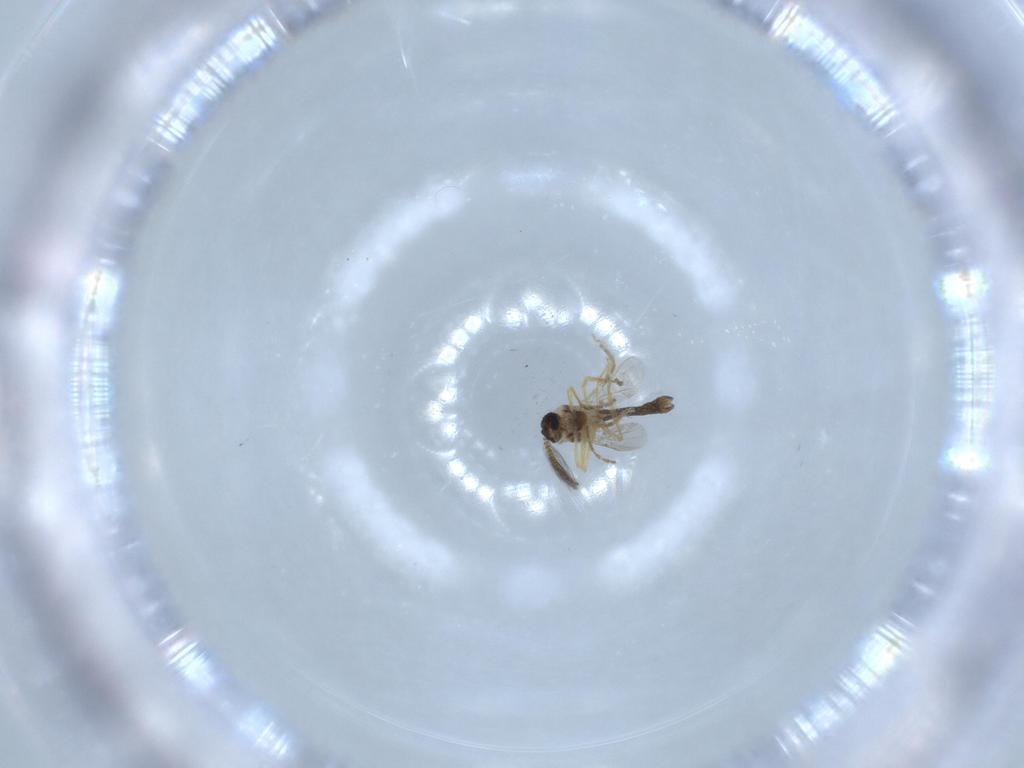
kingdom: Animalia
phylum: Arthropoda
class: Insecta
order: Diptera
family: Ceratopogonidae
